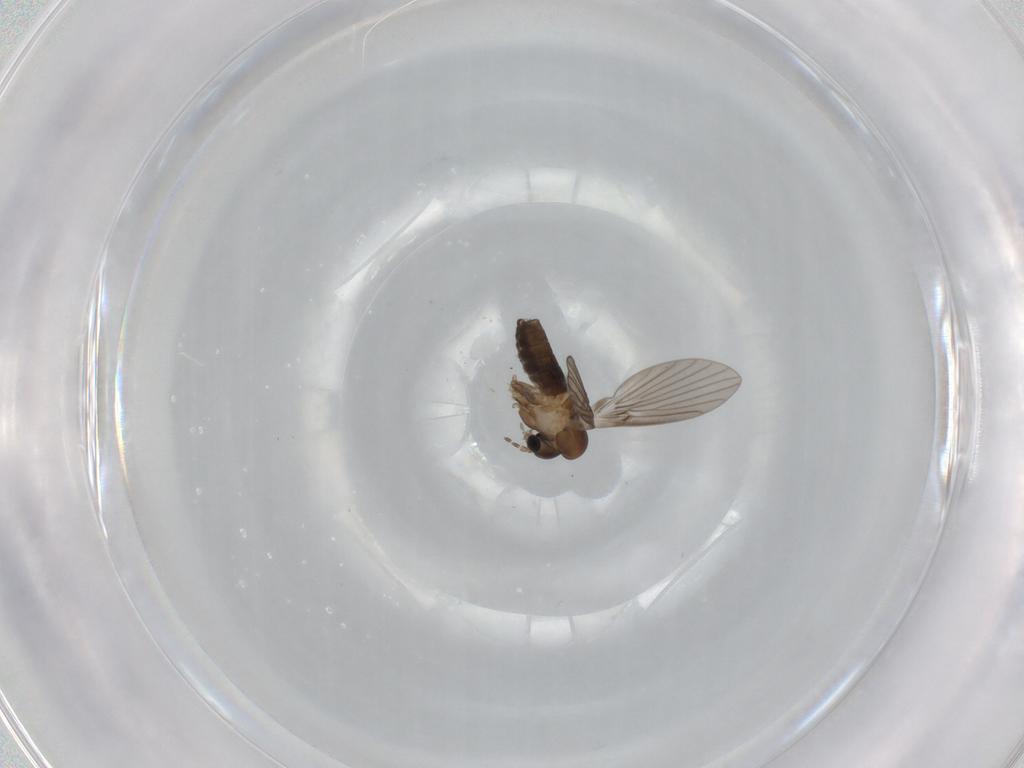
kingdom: Animalia
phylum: Arthropoda
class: Insecta
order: Diptera
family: Psychodidae
